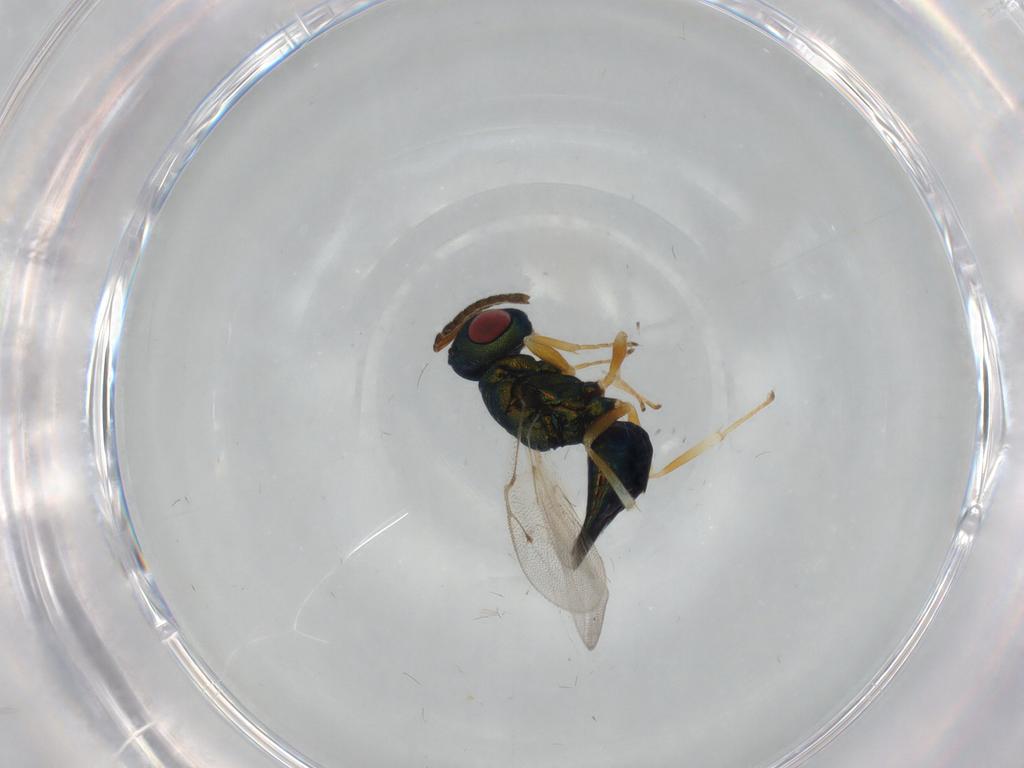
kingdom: Animalia
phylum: Arthropoda
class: Insecta
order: Hymenoptera
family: Pteromalidae
